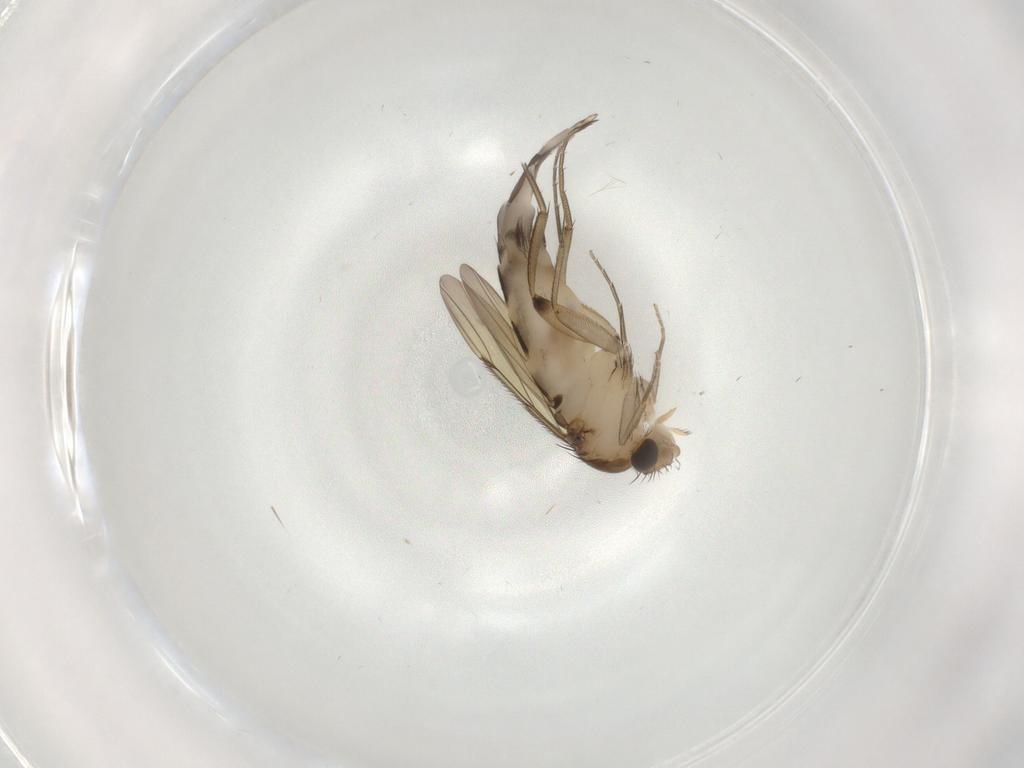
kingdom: Animalia
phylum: Arthropoda
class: Insecta
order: Diptera
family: Phoridae
